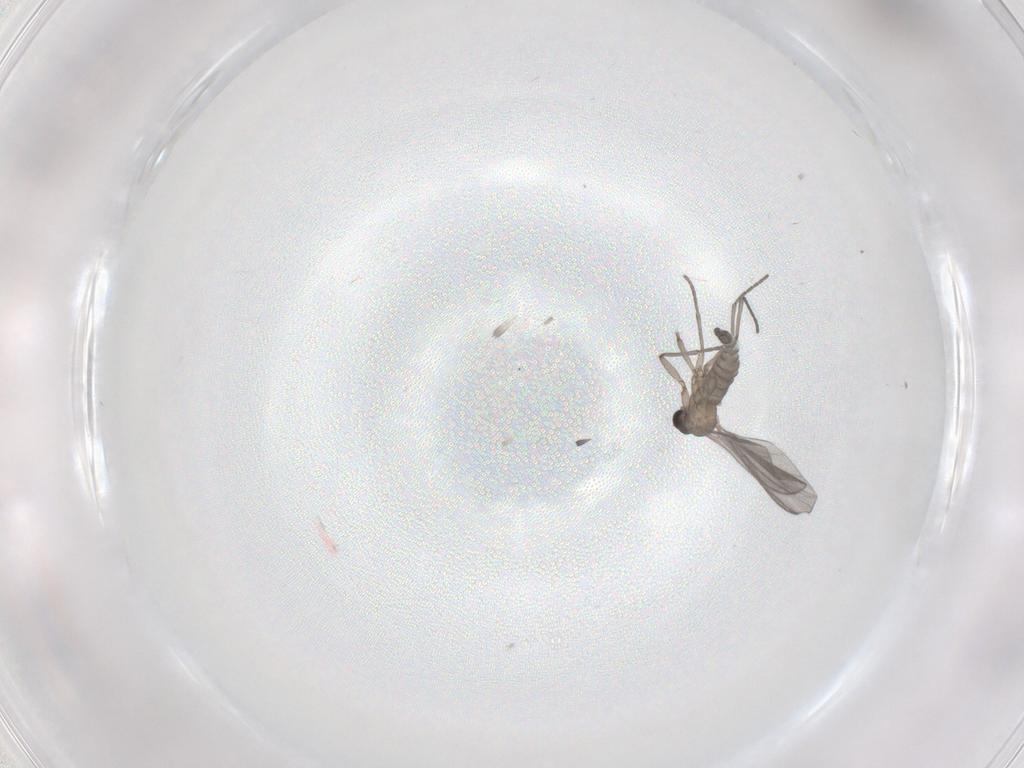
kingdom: Animalia
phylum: Arthropoda
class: Insecta
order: Diptera
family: Sciaridae
